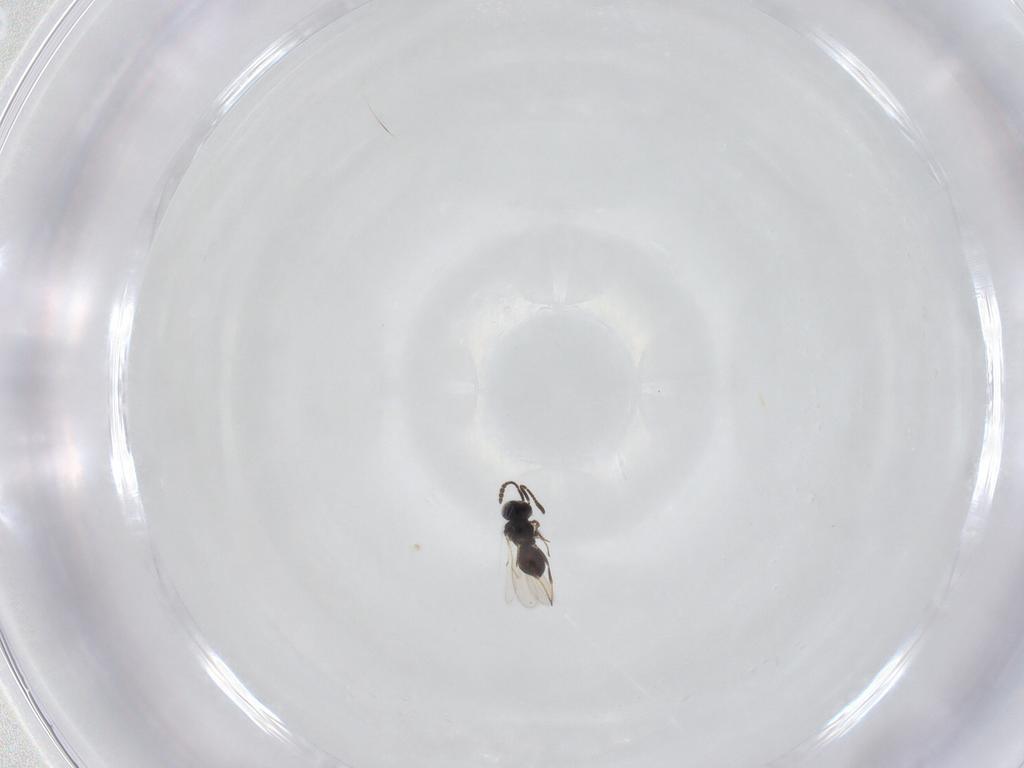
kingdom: Animalia
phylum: Arthropoda
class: Insecta
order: Hymenoptera
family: Scelionidae
